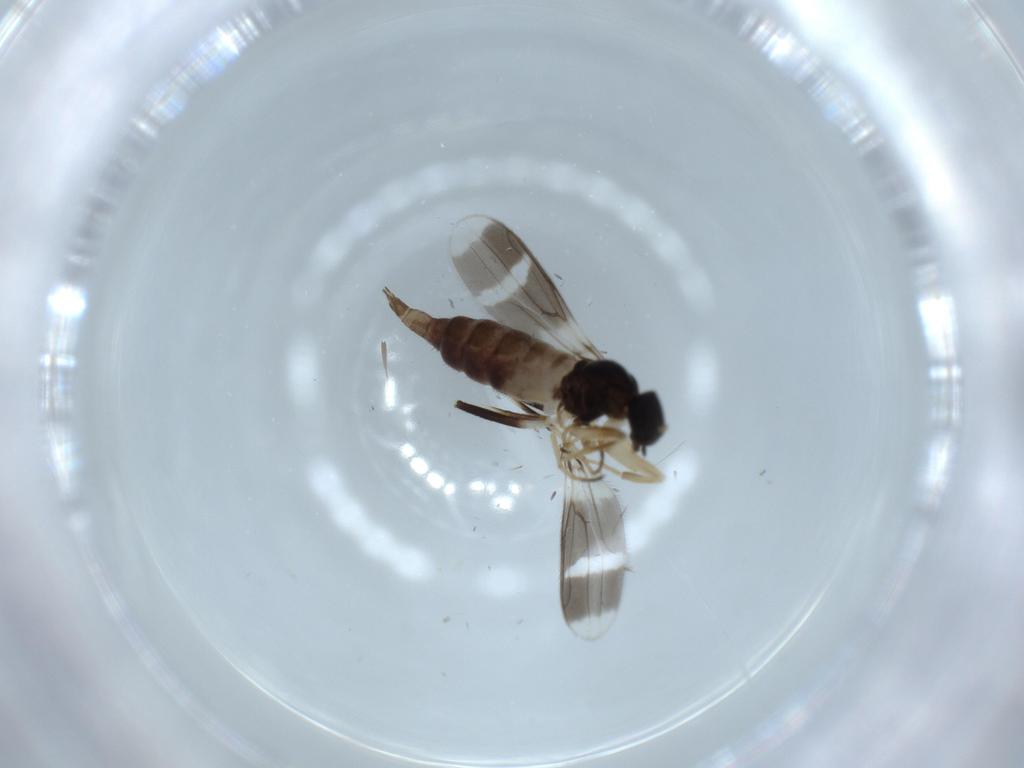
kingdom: Animalia
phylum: Arthropoda
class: Insecta
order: Diptera
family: Hybotidae
